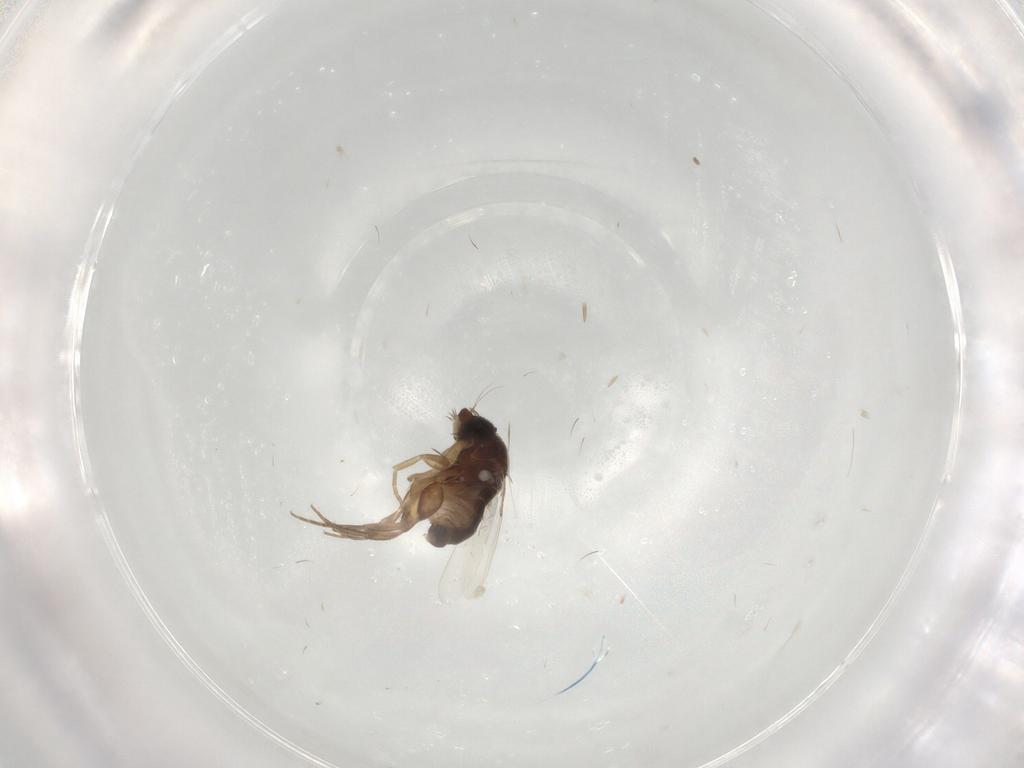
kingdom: Animalia
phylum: Arthropoda
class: Insecta
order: Diptera
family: Phoridae
